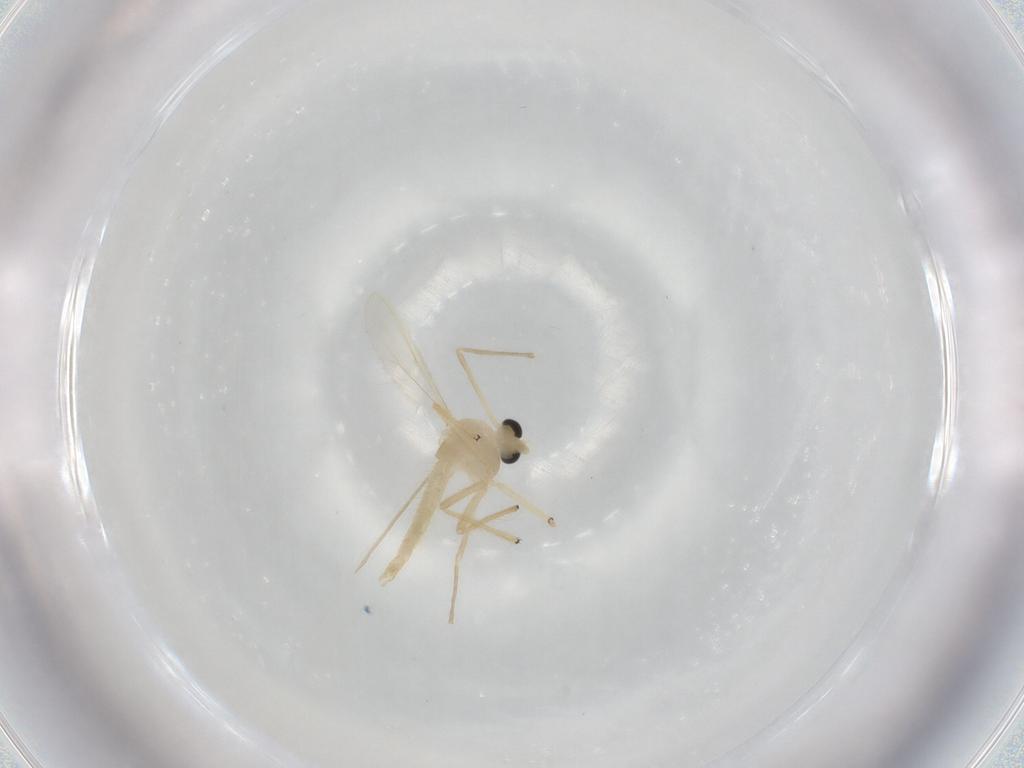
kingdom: Animalia
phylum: Arthropoda
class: Insecta
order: Diptera
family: Chironomidae
